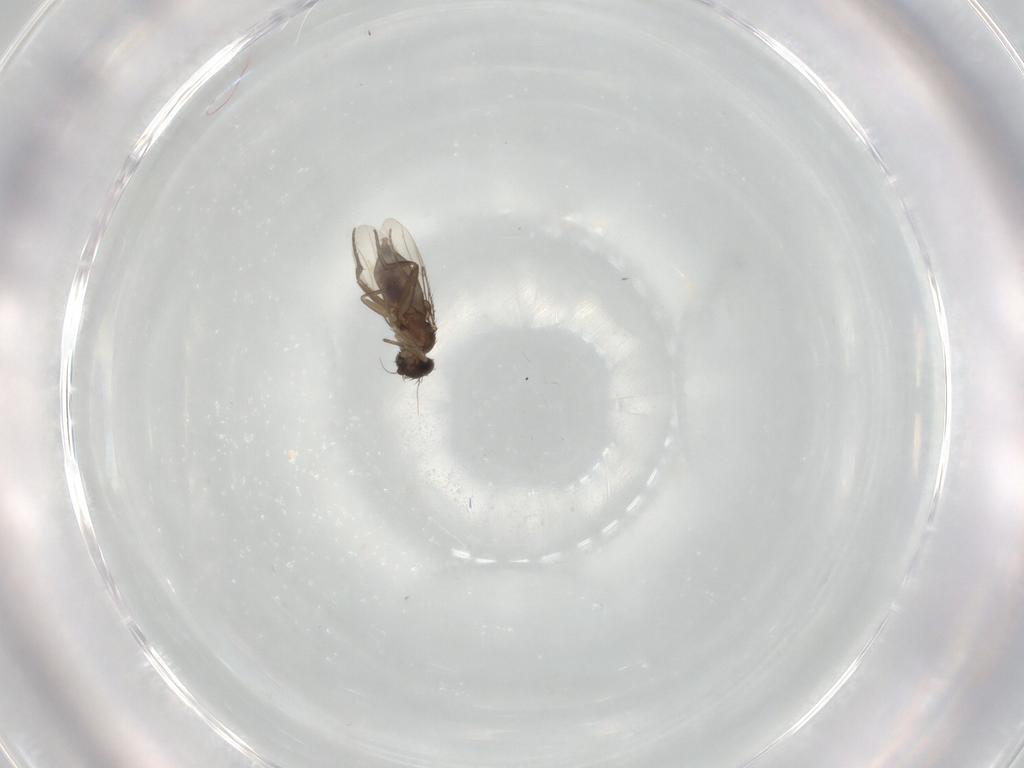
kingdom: Animalia
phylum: Arthropoda
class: Insecta
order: Diptera
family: Phoridae
